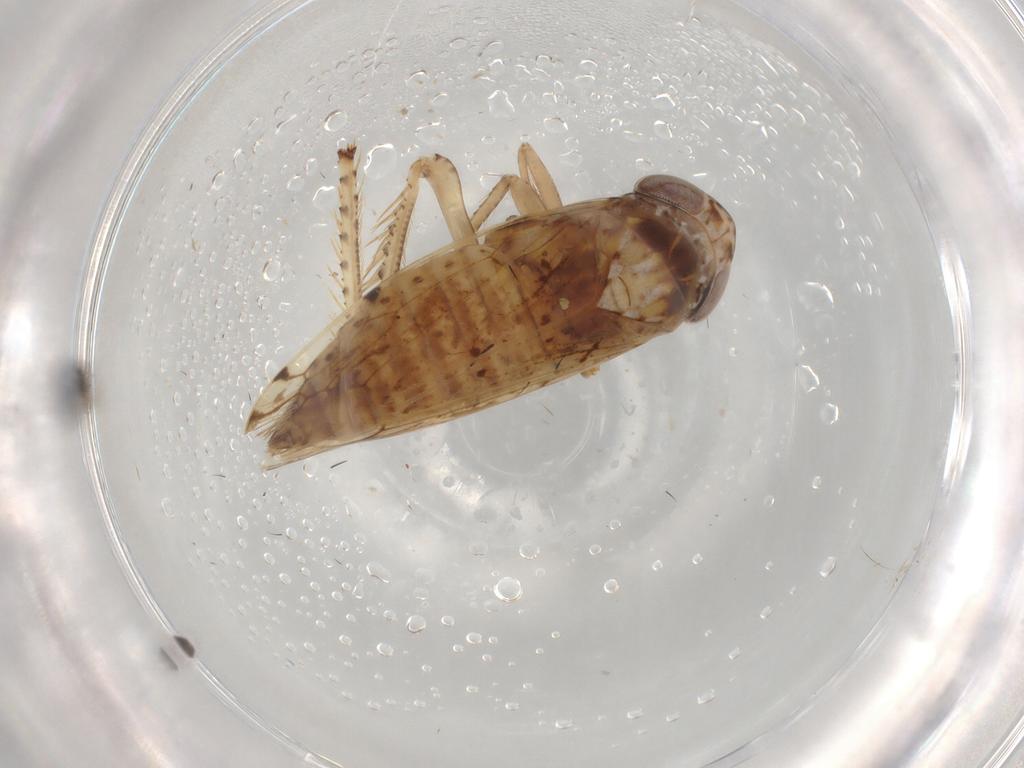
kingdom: Animalia
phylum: Arthropoda
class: Insecta
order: Hemiptera
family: Cicadellidae
